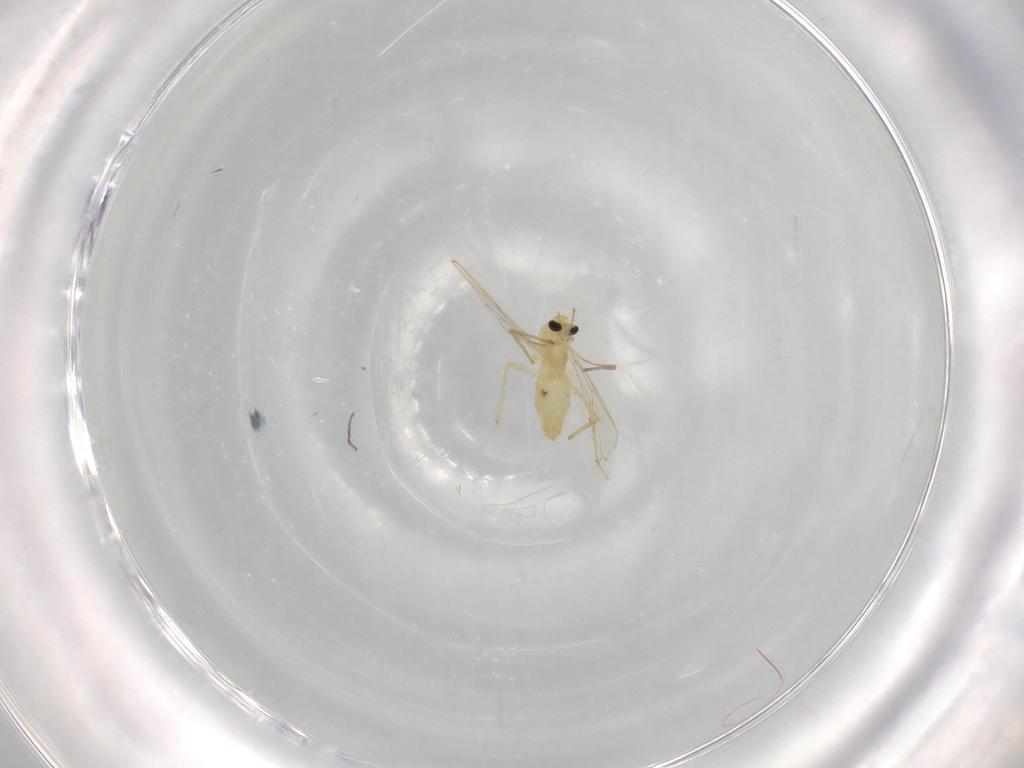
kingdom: Animalia
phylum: Arthropoda
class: Insecta
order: Diptera
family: Chironomidae
